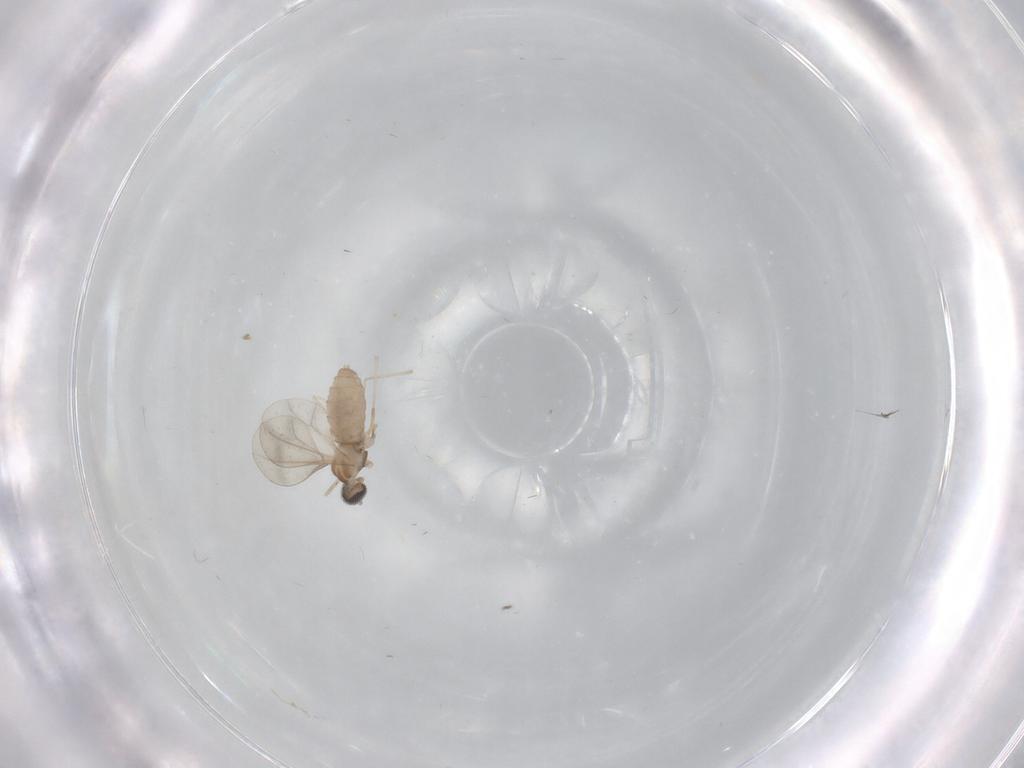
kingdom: Animalia
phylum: Arthropoda
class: Insecta
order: Diptera
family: Cecidomyiidae
